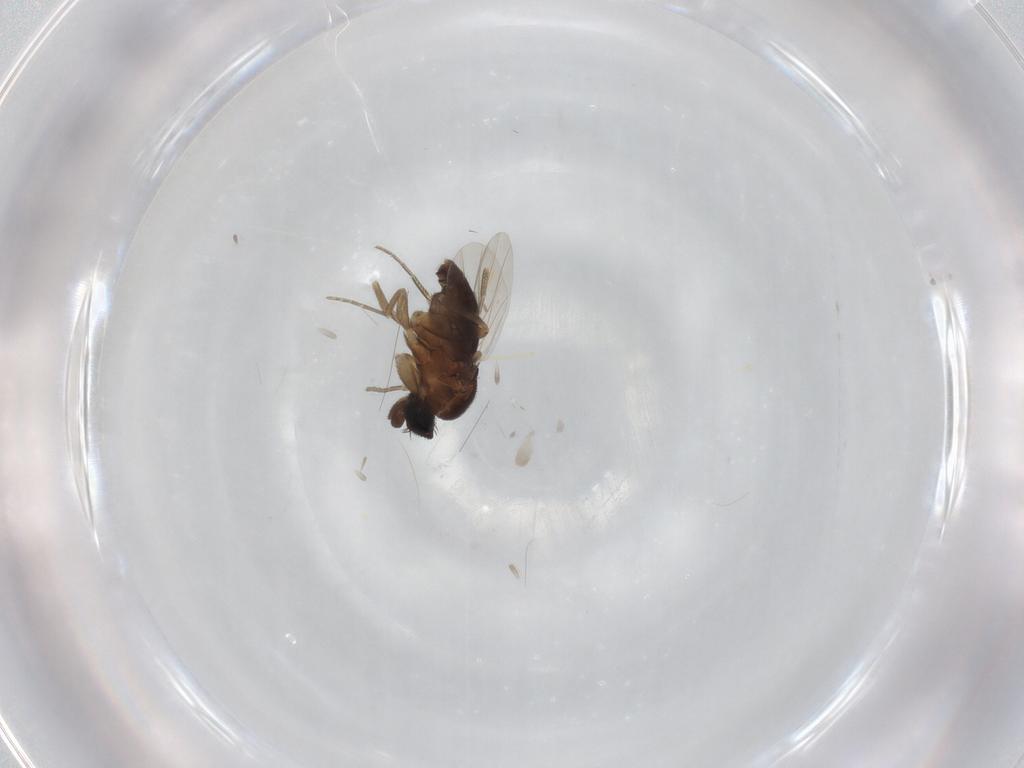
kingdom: Animalia
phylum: Arthropoda
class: Insecta
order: Diptera
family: Phoridae
